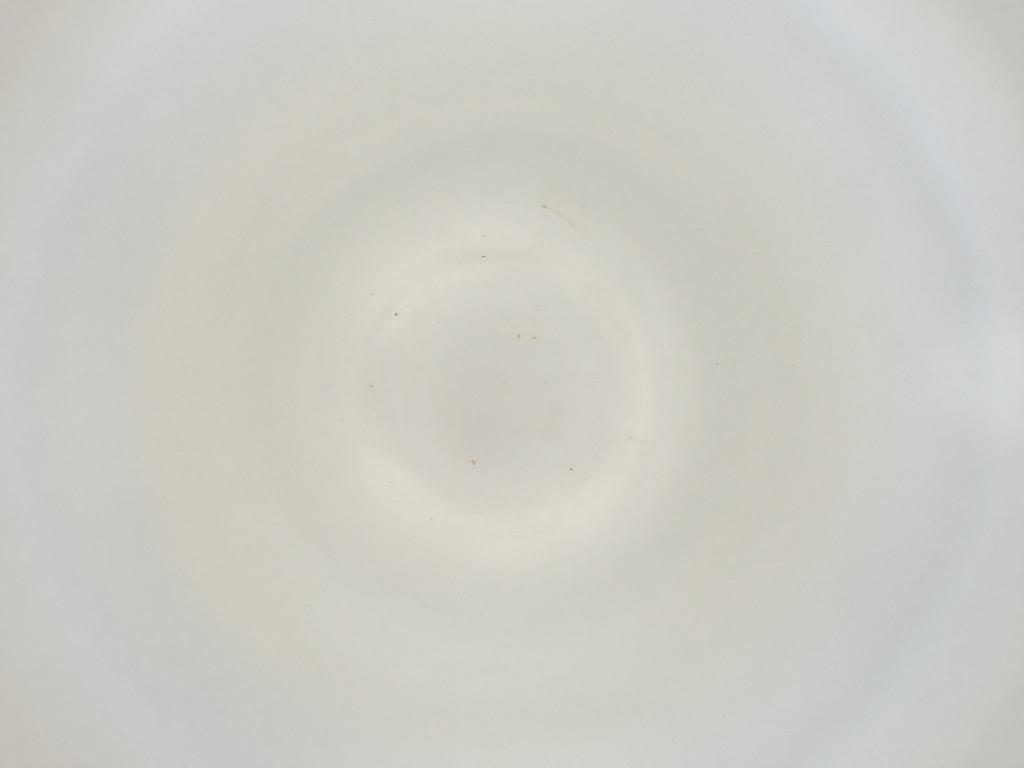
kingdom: Animalia
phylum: Arthropoda
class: Insecta
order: Diptera
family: Cecidomyiidae
